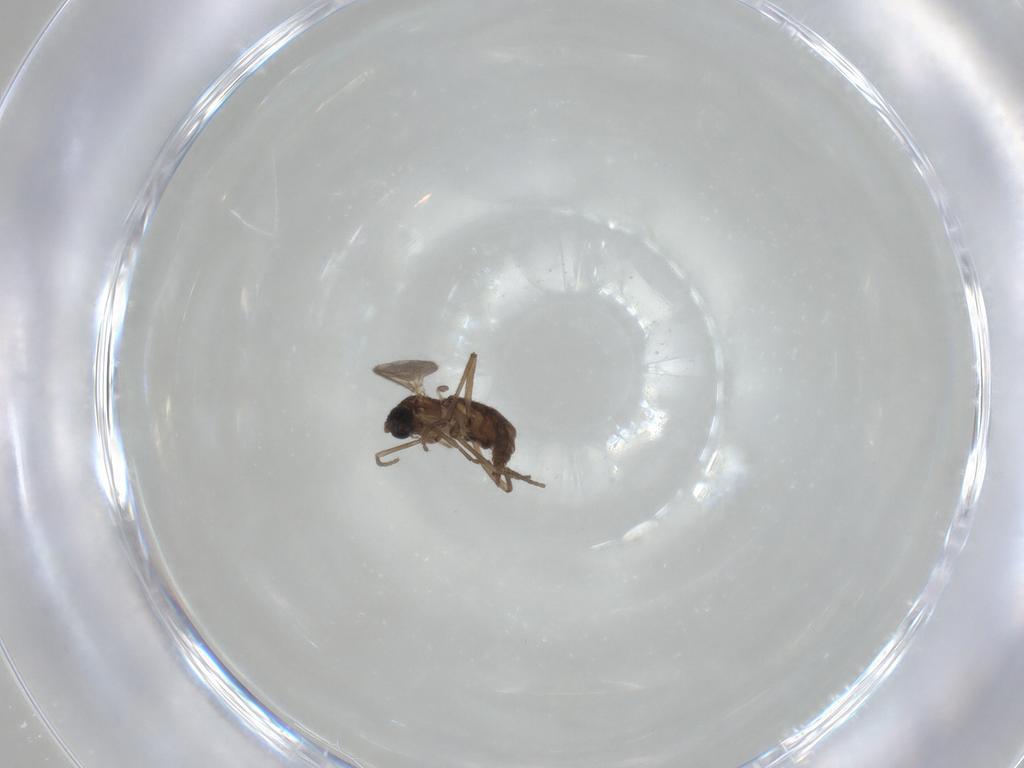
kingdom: Animalia
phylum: Arthropoda
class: Insecta
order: Diptera
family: Sciaridae
